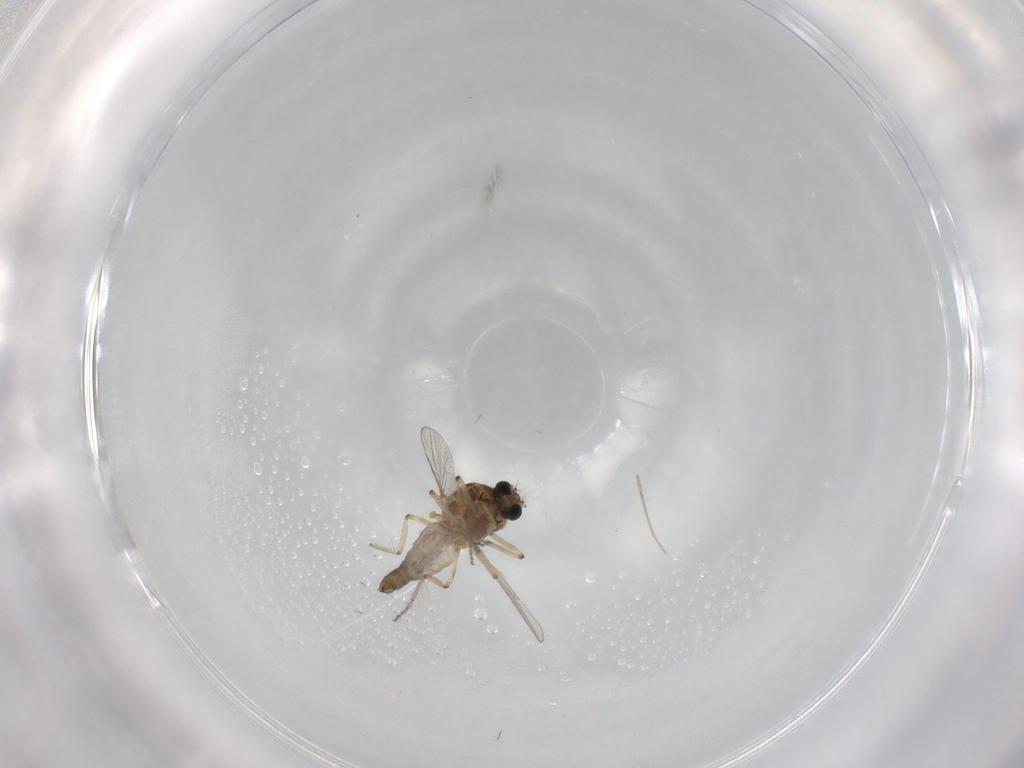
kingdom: Animalia
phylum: Arthropoda
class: Insecta
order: Diptera
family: Ceratopogonidae
